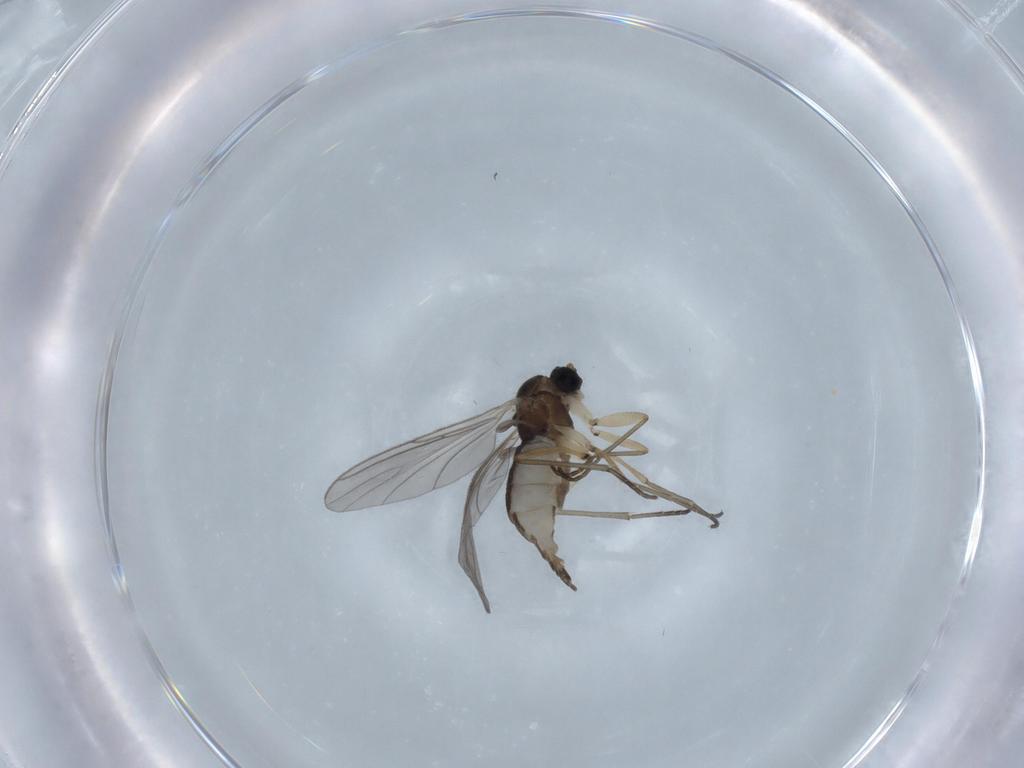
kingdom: Animalia
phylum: Arthropoda
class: Insecta
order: Diptera
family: Sciaridae
